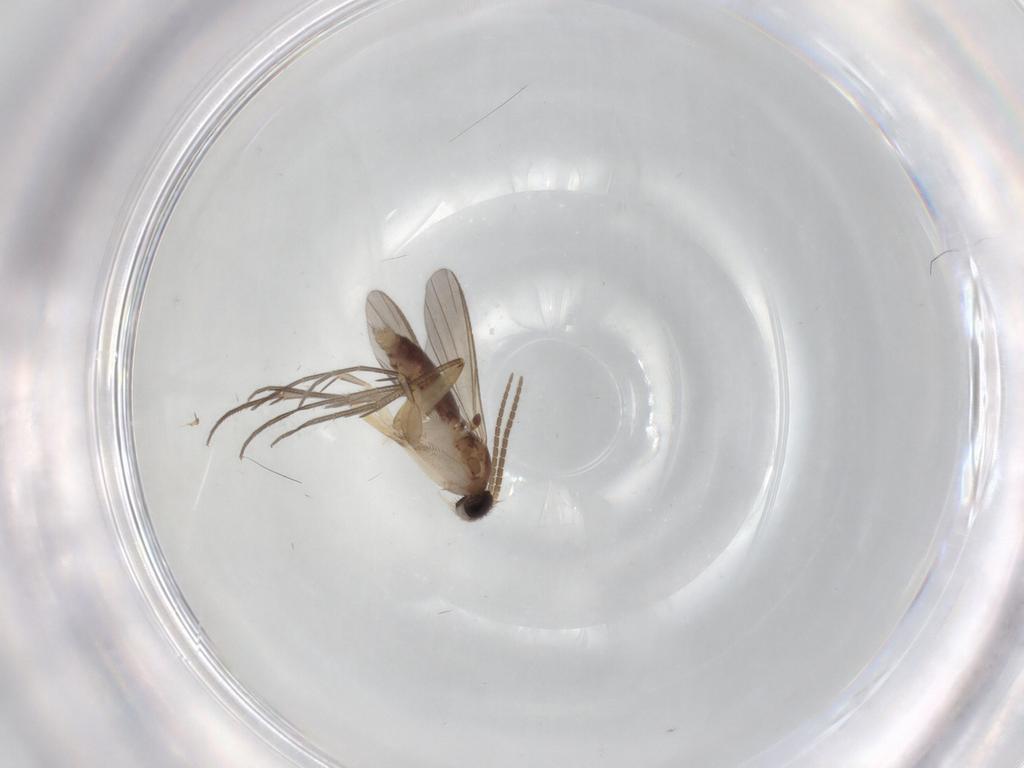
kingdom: Animalia
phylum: Arthropoda
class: Insecta
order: Diptera
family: Mycetophilidae
